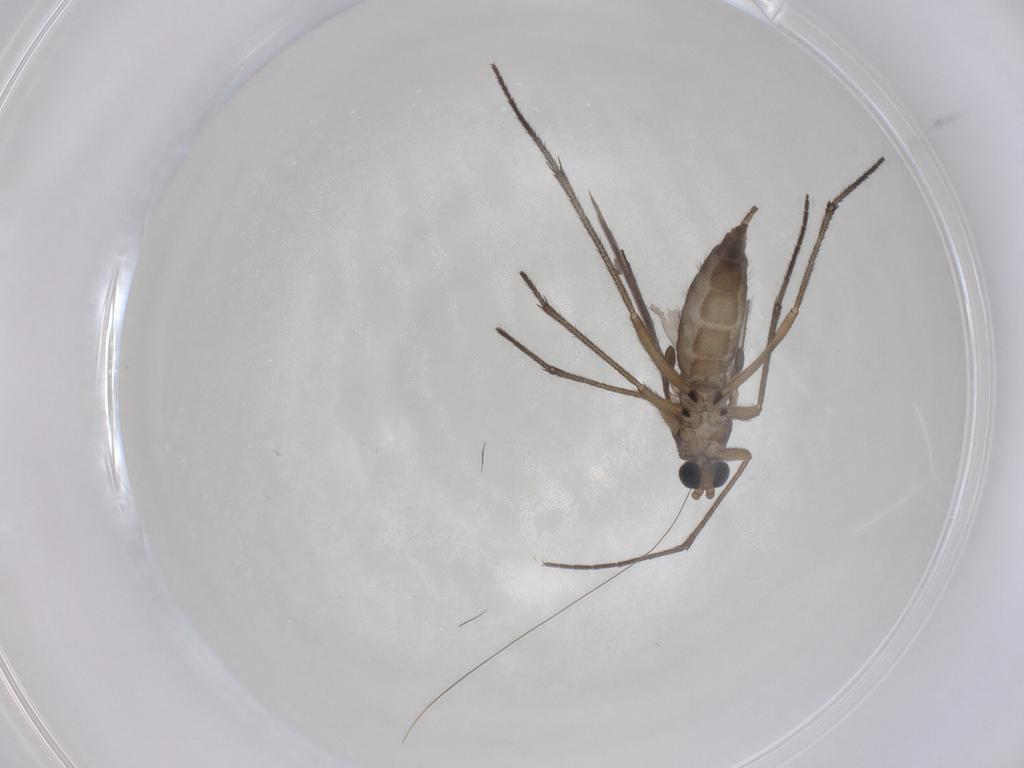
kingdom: Animalia
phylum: Arthropoda
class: Insecta
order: Diptera
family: Sciaridae
